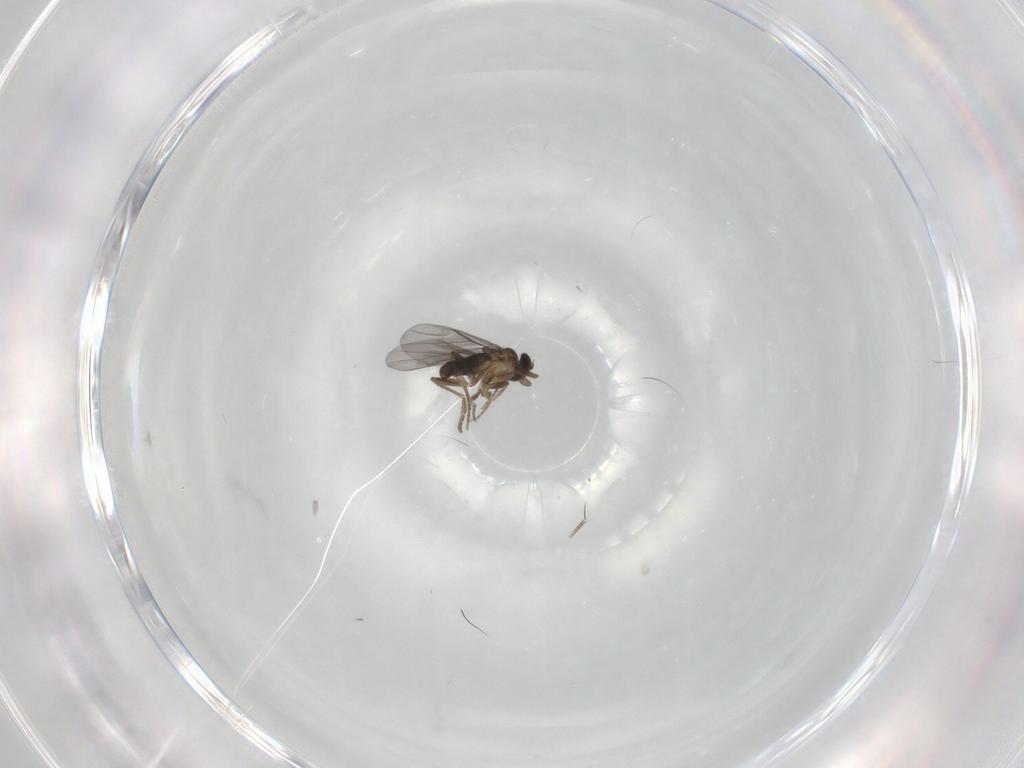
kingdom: Animalia
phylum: Arthropoda
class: Insecta
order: Diptera
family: Phoridae
